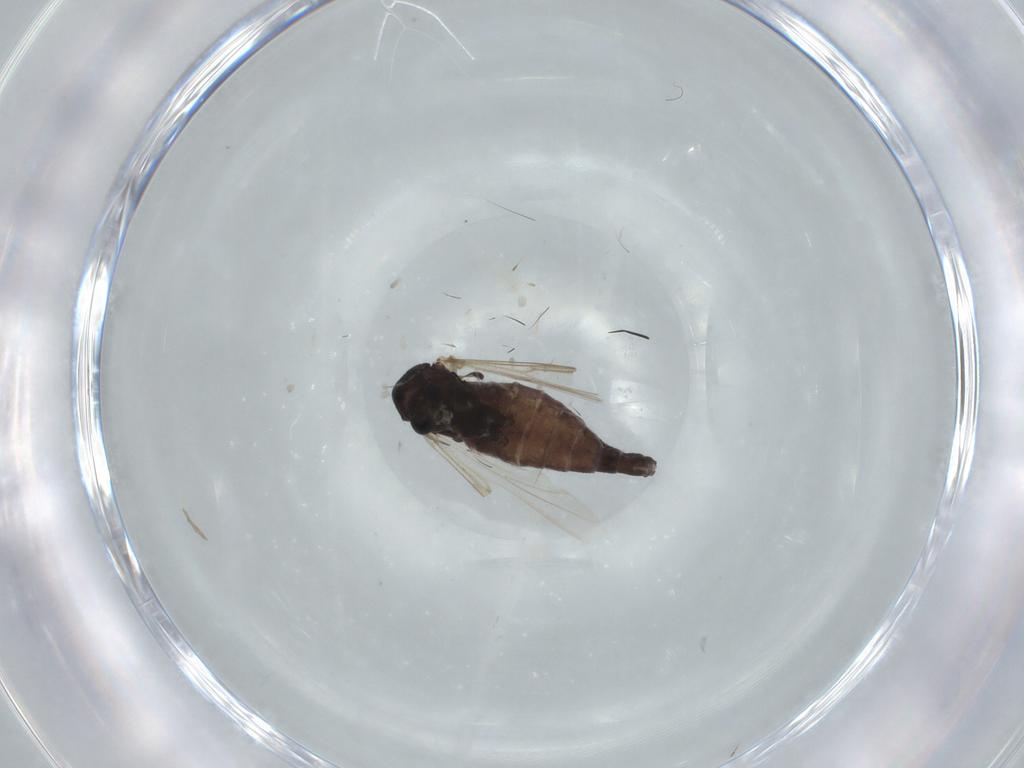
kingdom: Animalia
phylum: Arthropoda
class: Insecta
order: Diptera
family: Chironomidae
